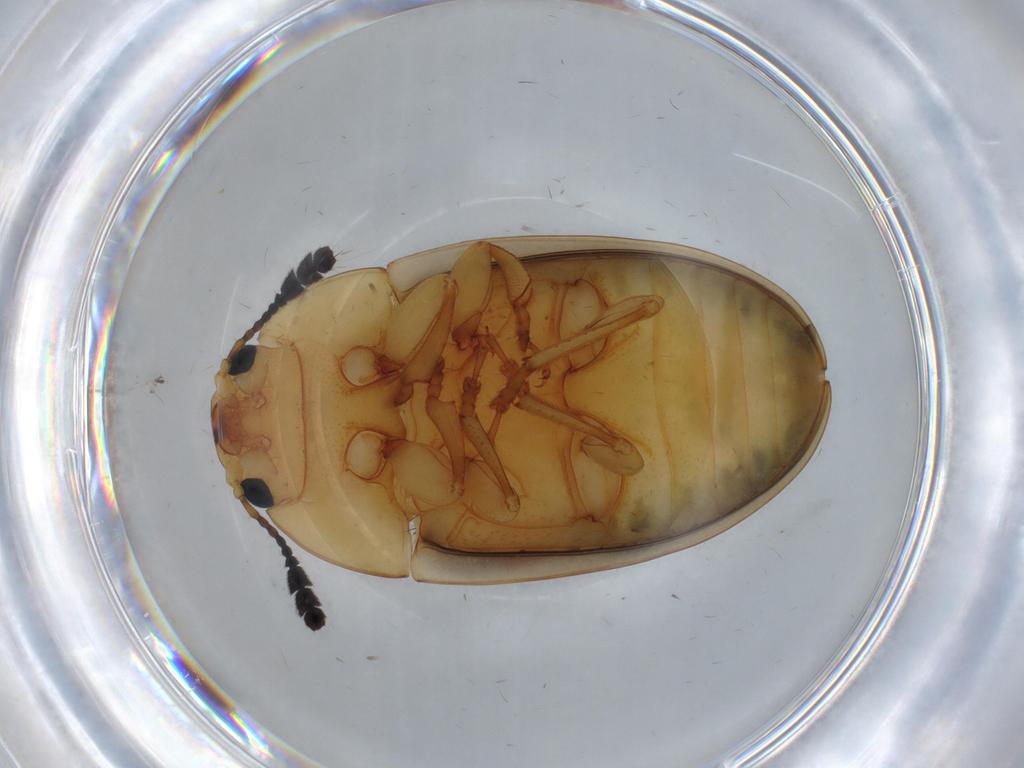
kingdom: Animalia
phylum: Arthropoda
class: Insecta
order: Coleoptera
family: Erotylidae
